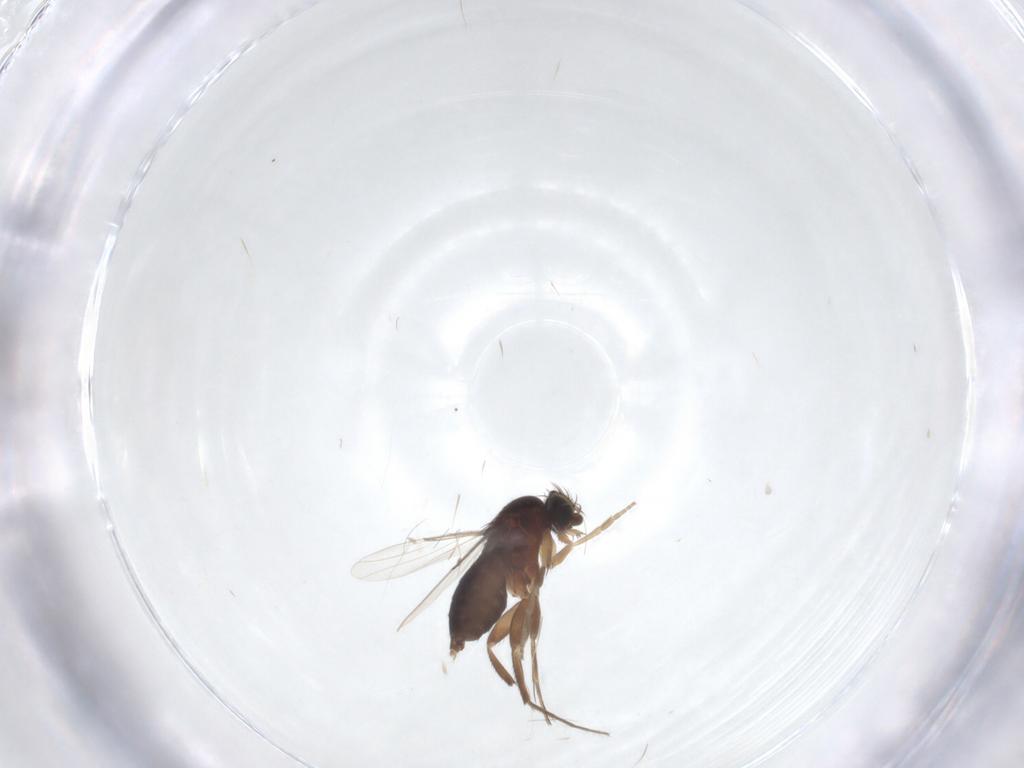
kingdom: Animalia
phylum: Arthropoda
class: Insecta
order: Diptera
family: Phoridae
